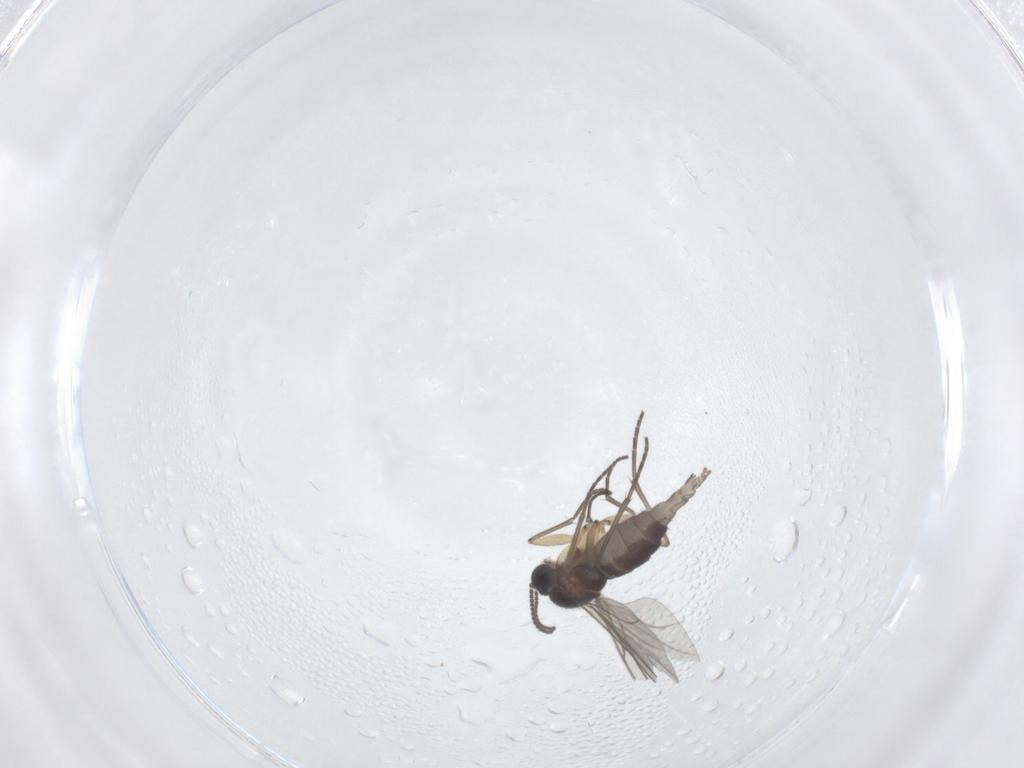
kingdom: Animalia
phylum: Arthropoda
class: Insecta
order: Diptera
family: Sciaridae
